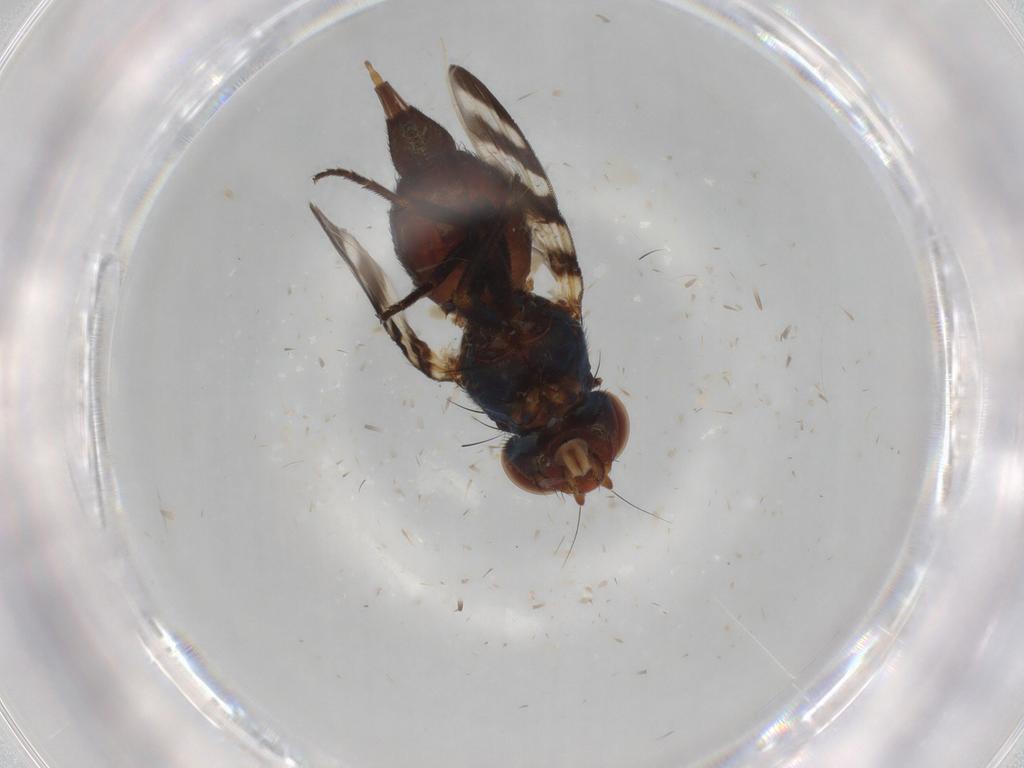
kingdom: Animalia
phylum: Arthropoda
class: Insecta
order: Diptera
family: Ulidiidae
